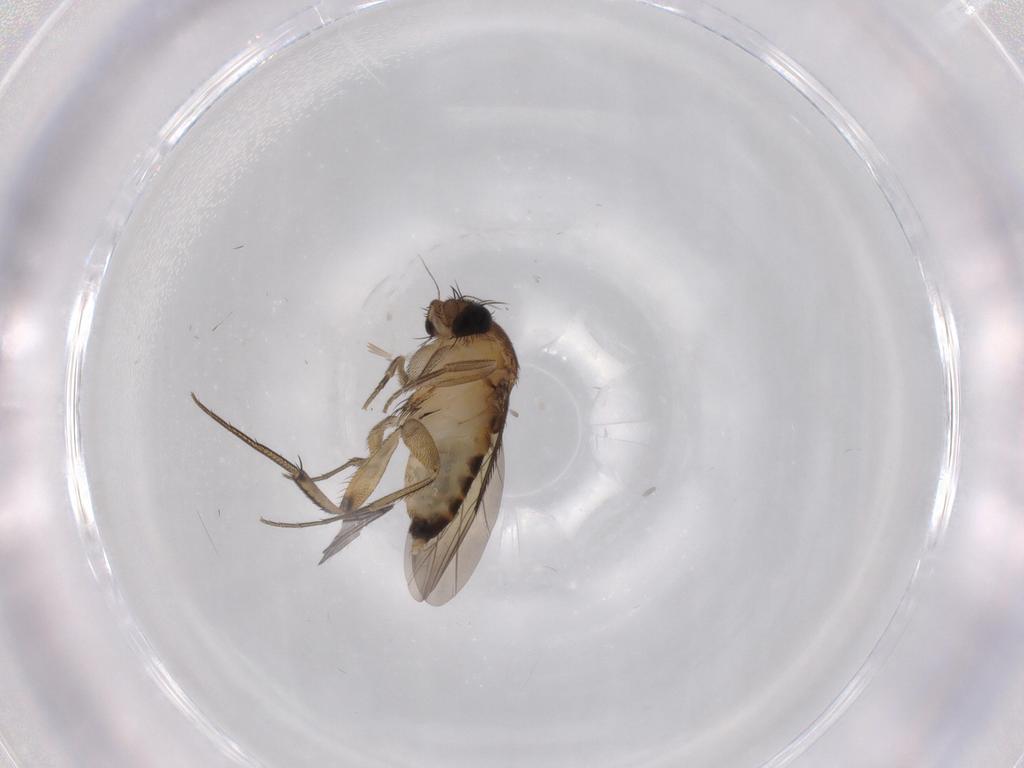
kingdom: Animalia
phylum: Arthropoda
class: Insecta
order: Diptera
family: Phoridae
